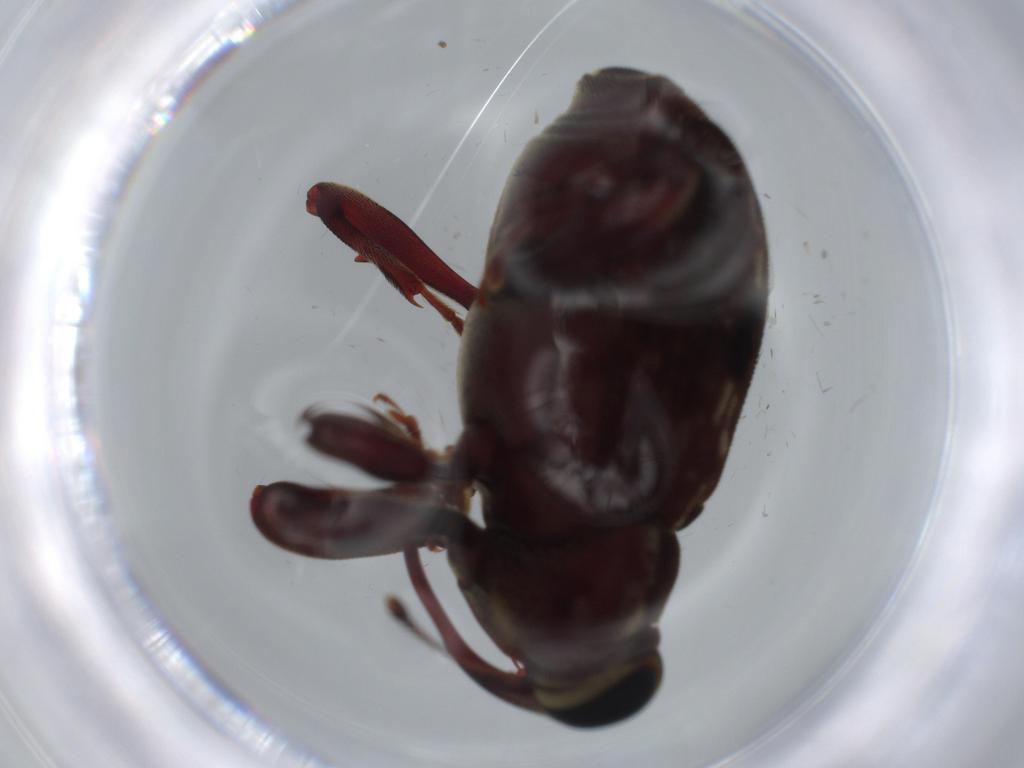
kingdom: Animalia
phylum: Arthropoda
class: Insecta
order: Coleoptera
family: Curculionidae
